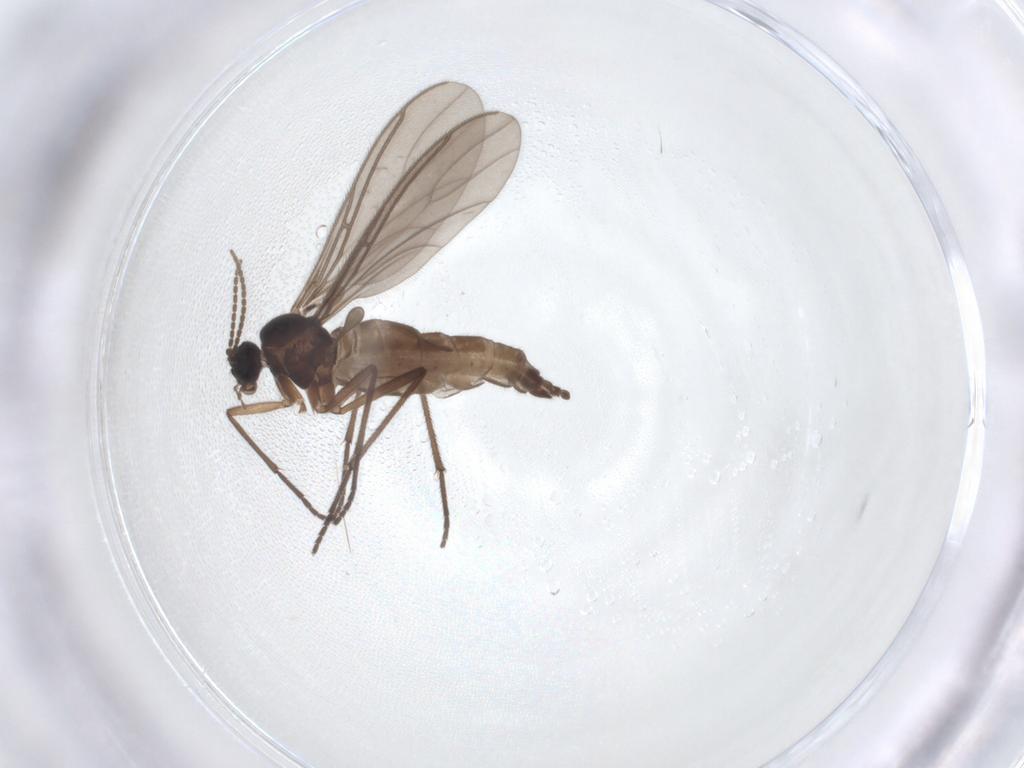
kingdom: Animalia
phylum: Arthropoda
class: Insecta
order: Diptera
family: Sciaridae
